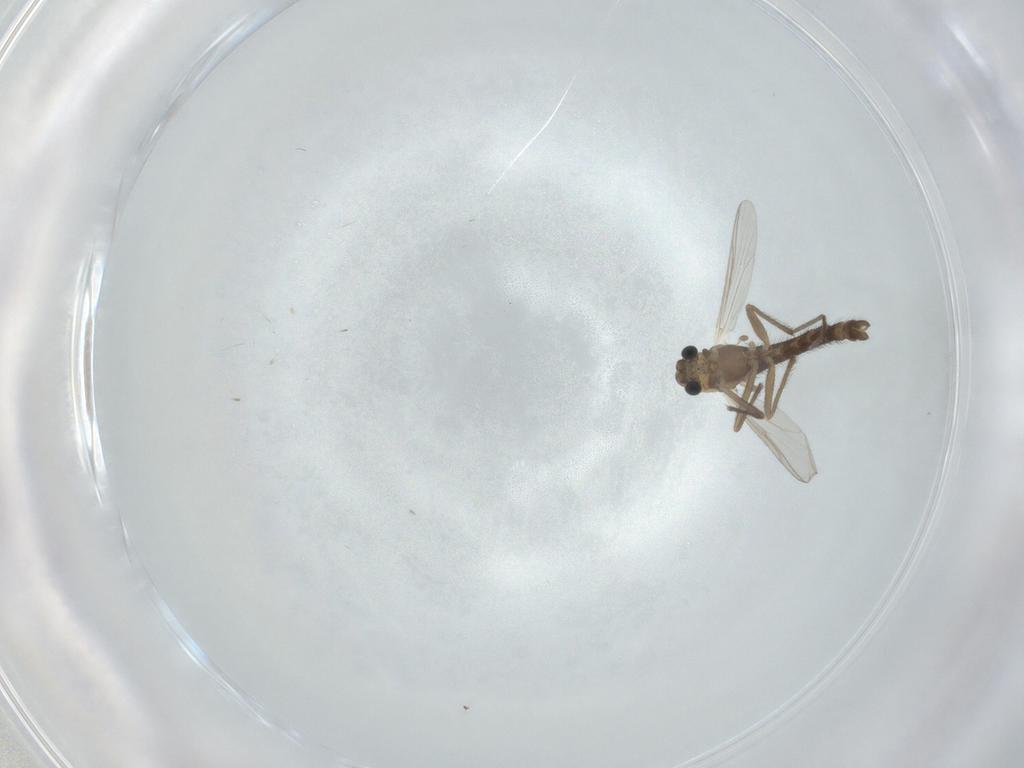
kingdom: Animalia
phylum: Arthropoda
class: Insecta
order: Diptera
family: Chironomidae
